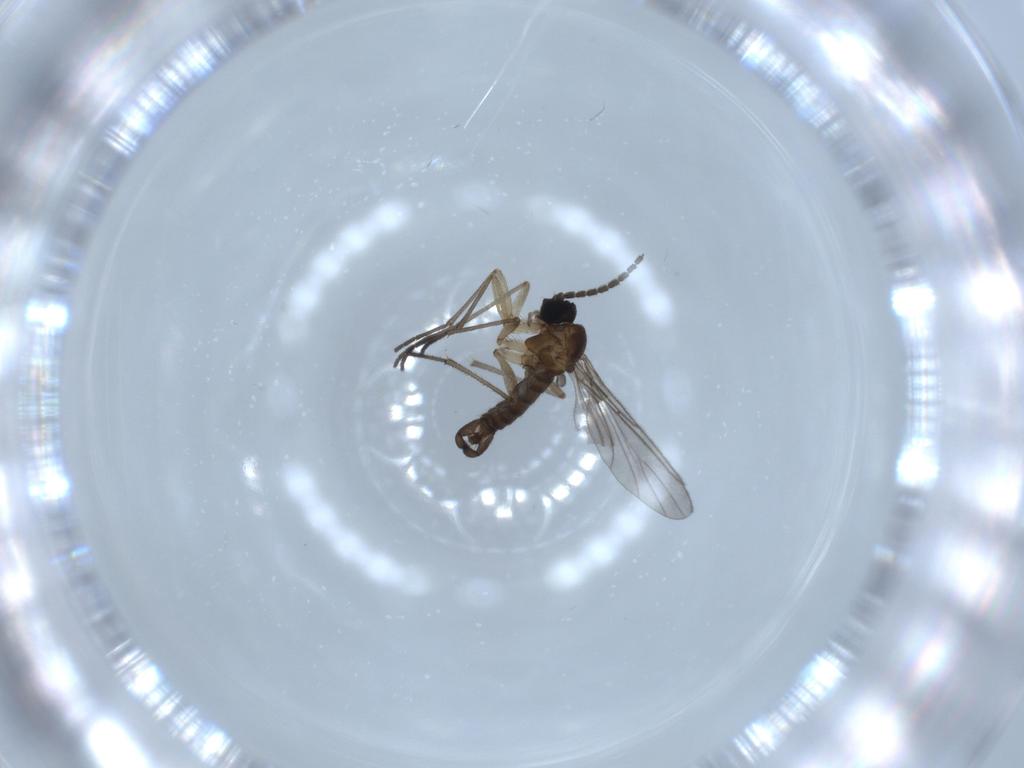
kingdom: Animalia
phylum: Arthropoda
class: Insecta
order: Diptera
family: Sciaridae
